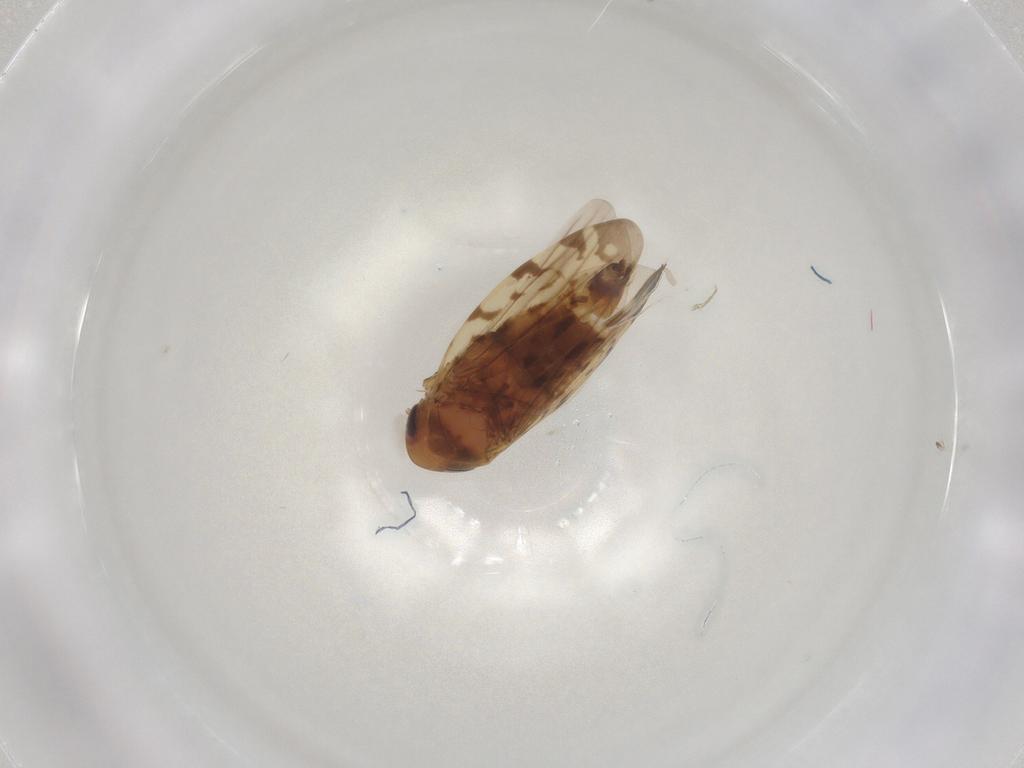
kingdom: Animalia
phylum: Arthropoda
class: Insecta
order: Hemiptera
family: Cicadellidae
